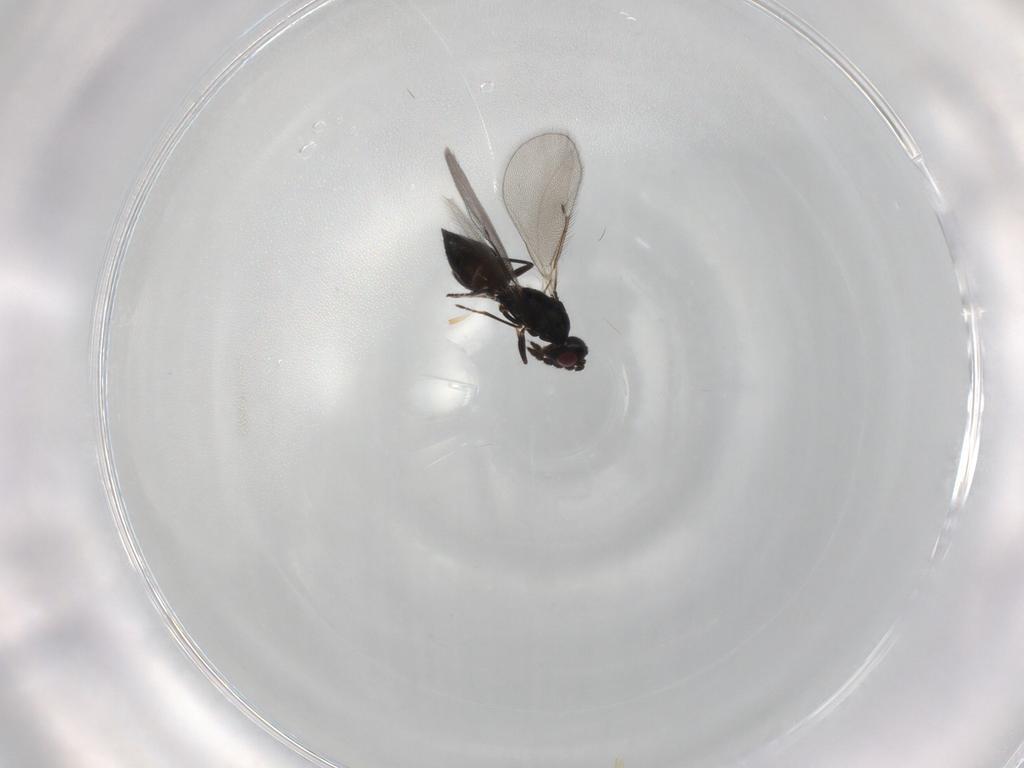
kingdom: Animalia
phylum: Arthropoda
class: Insecta
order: Hymenoptera
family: Eulophidae
